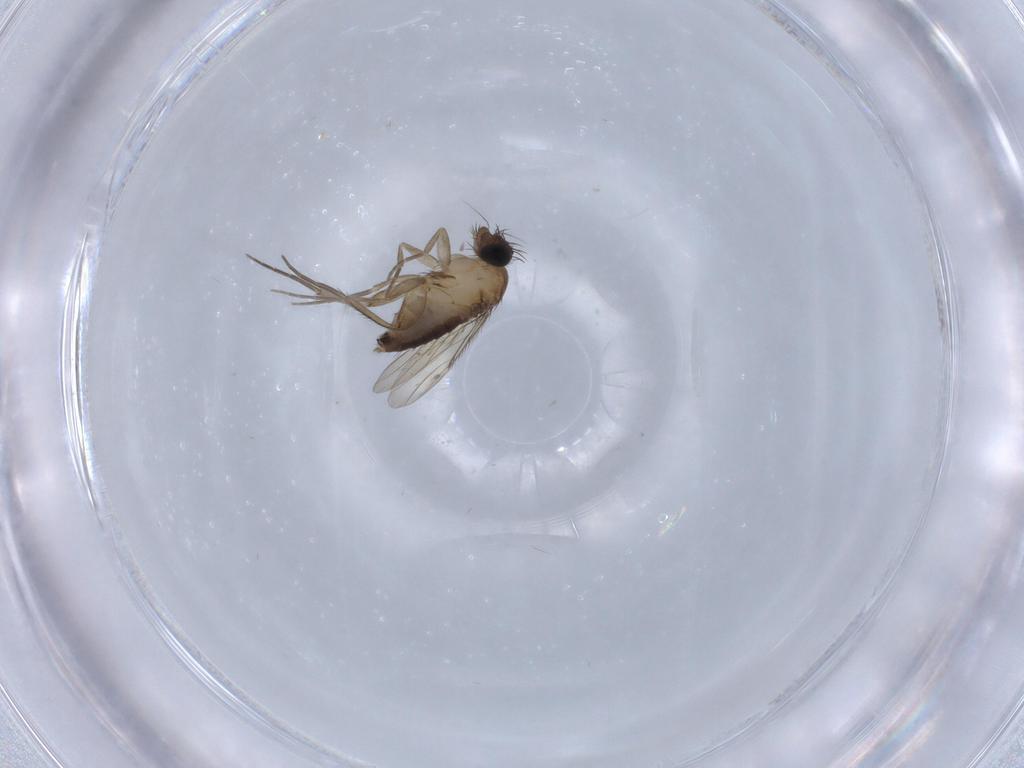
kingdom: Animalia
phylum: Arthropoda
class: Insecta
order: Diptera
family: Phoridae
